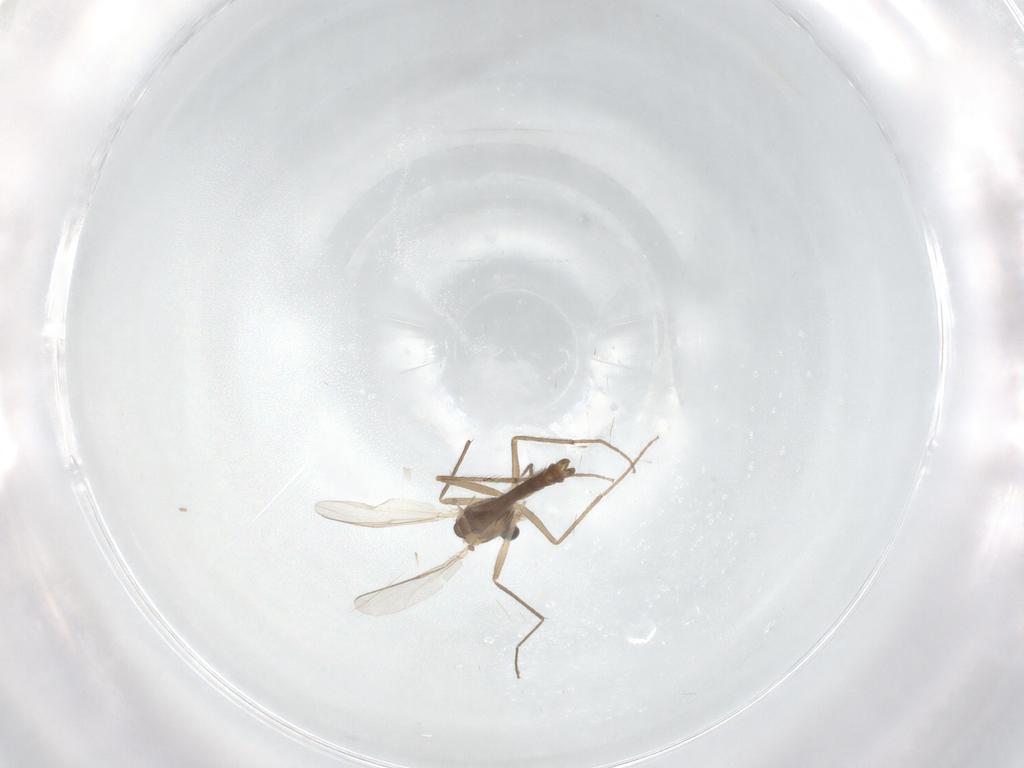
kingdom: Animalia
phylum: Arthropoda
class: Insecta
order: Diptera
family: Chironomidae
